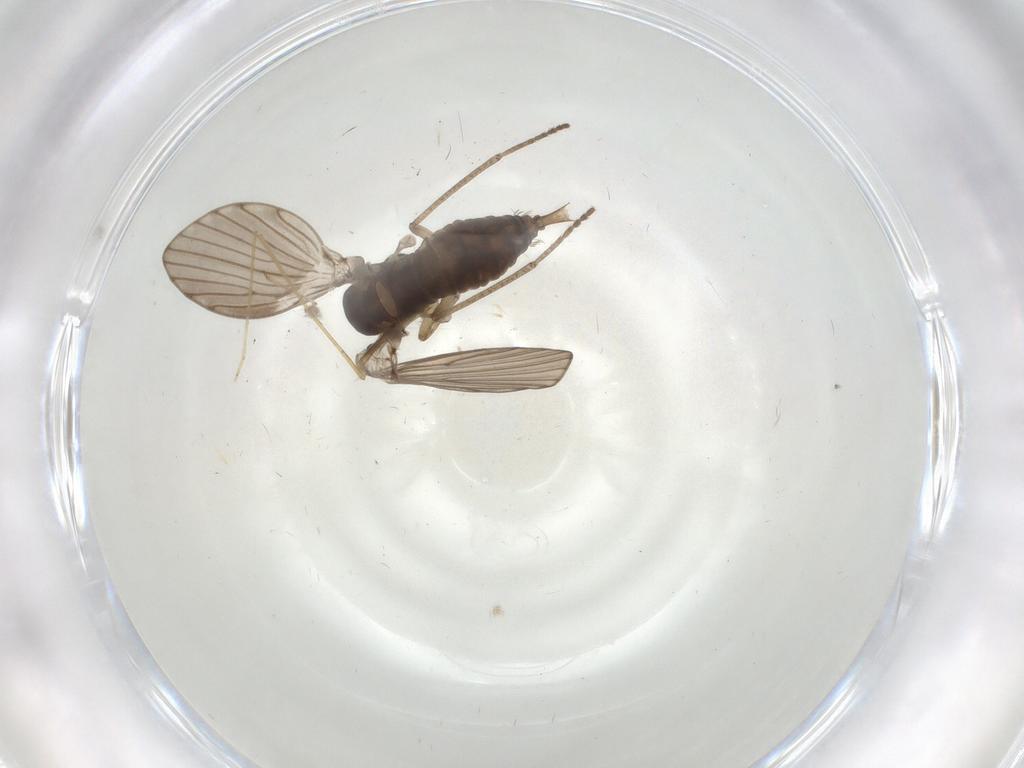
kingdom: Animalia
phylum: Arthropoda
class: Insecta
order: Diptera
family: Psychodidae
